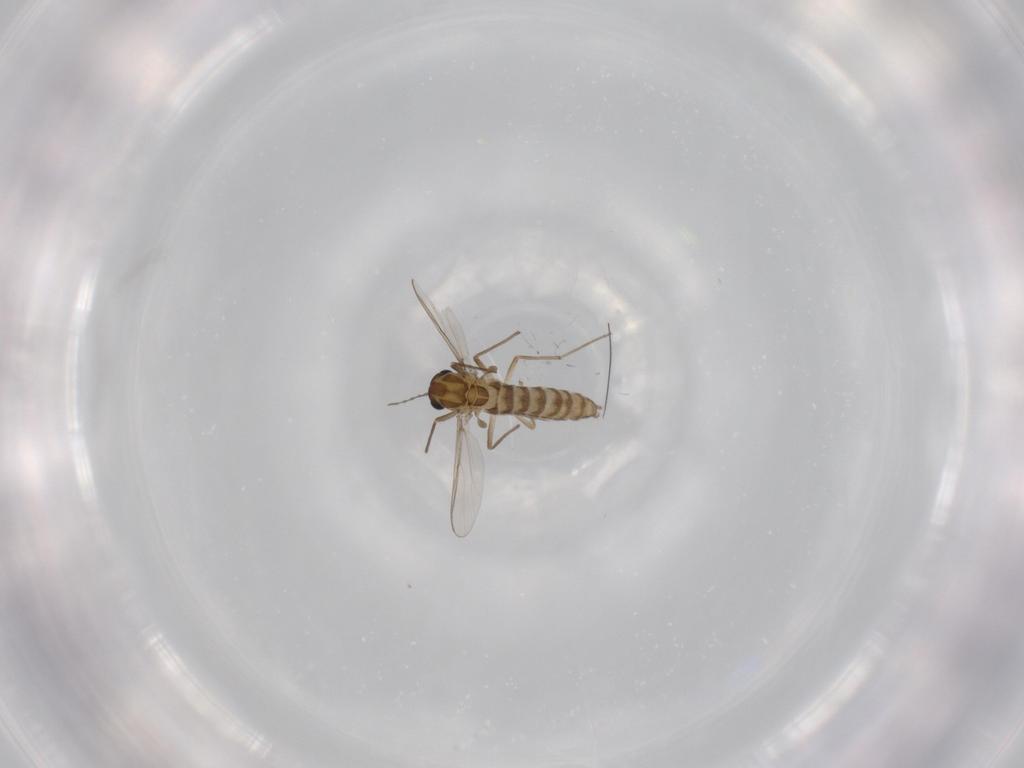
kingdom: Animalia
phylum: Arthropoda
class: Insecta
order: Diptera
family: Chironomidae
